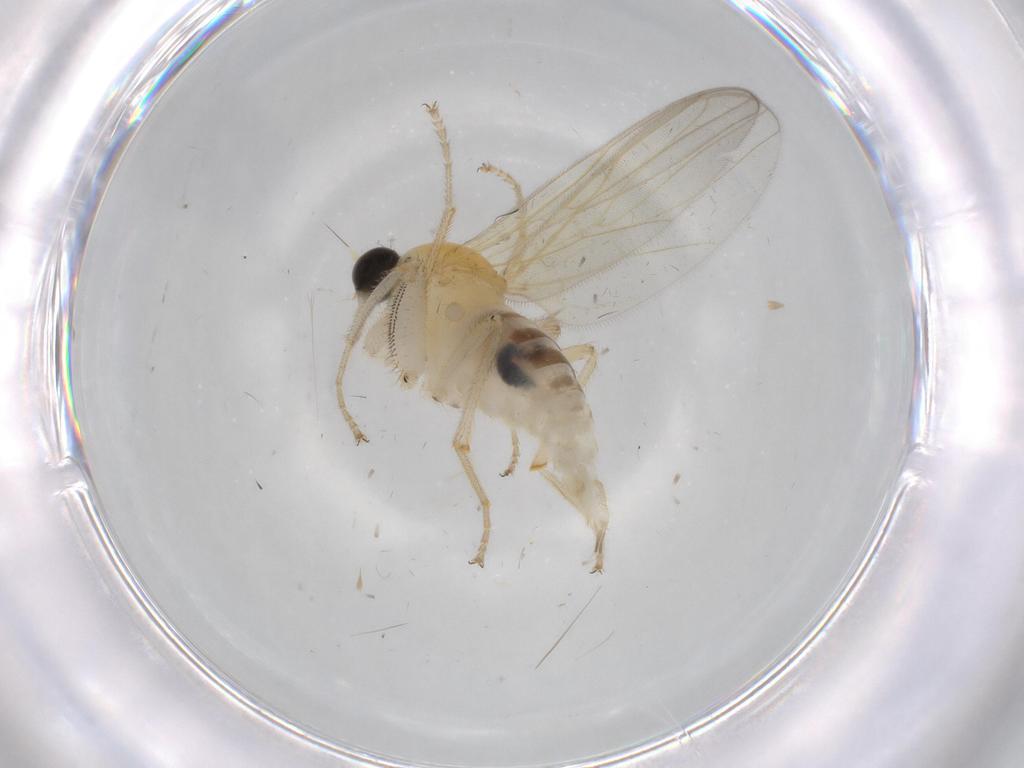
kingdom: Animalia
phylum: Arthropoda
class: Insecta
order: Diptera
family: Hybotidae
